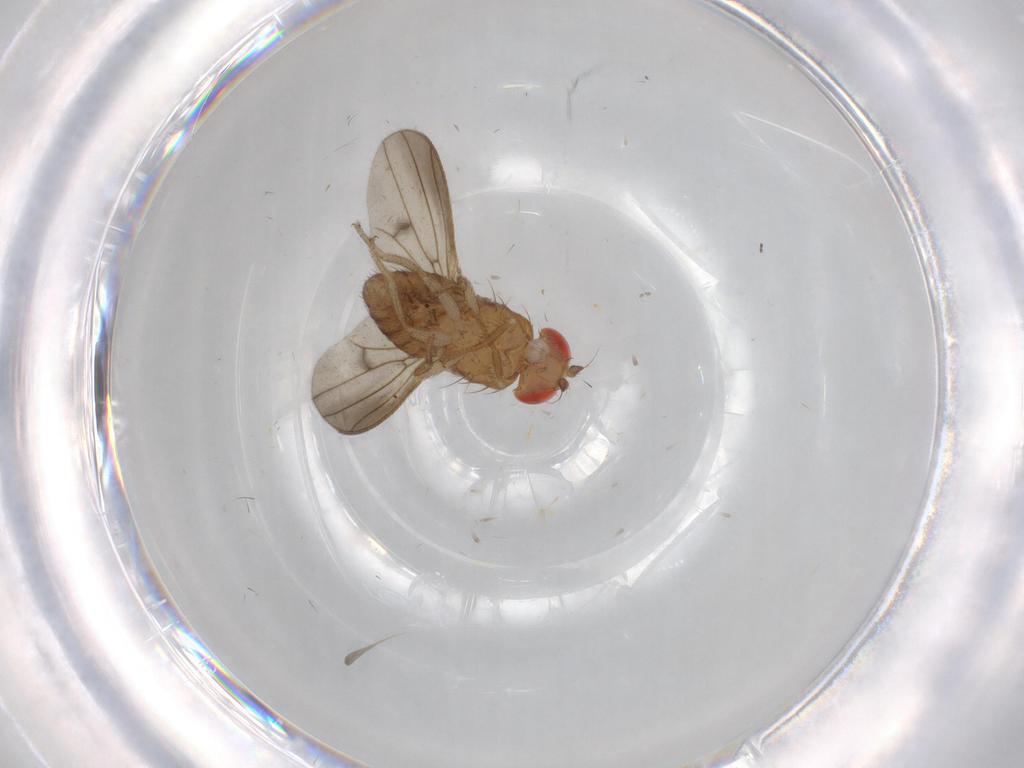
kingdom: Animalia
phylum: Arthropoda
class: Insecta
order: Diptera
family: Drosophilidae
